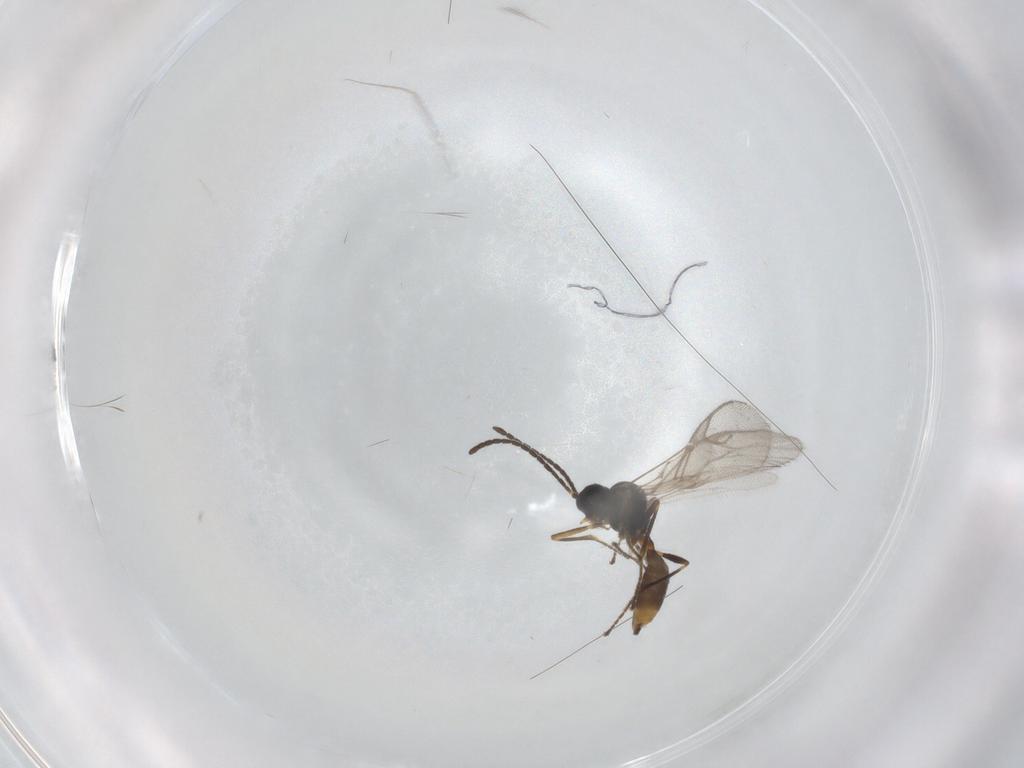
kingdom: Animalia
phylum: Arthropoda
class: Insecta
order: Hymenoptera
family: Braconidae
